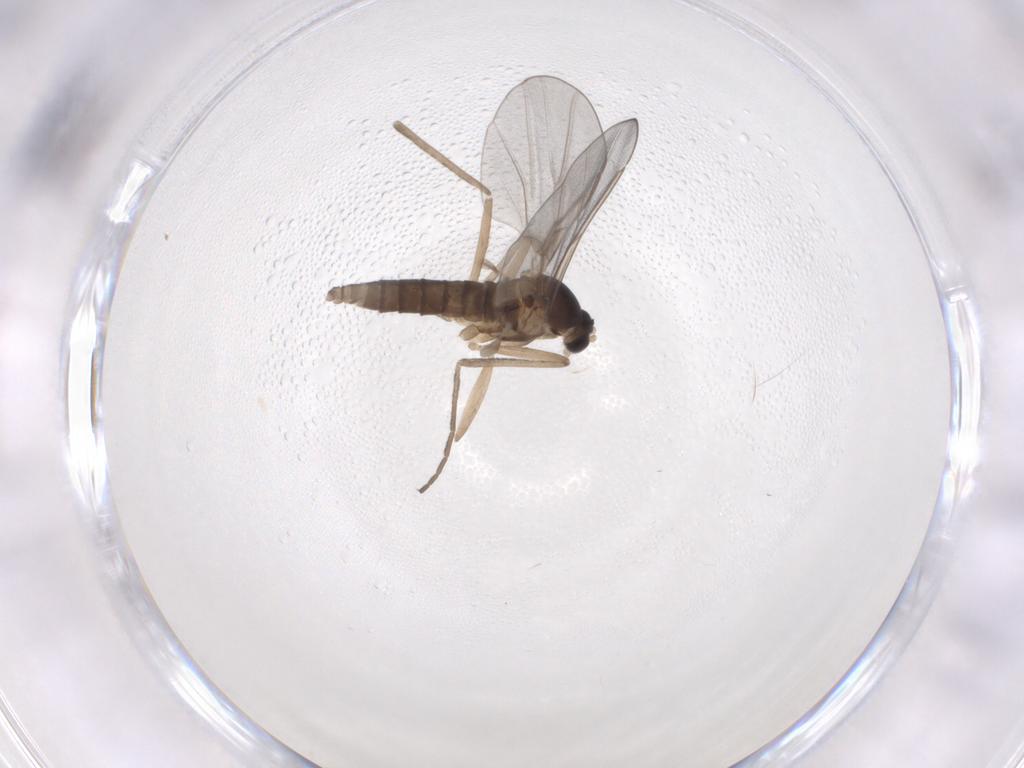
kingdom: Animalia
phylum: Arthropoda
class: Insecta
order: Diptera
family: Cecidomyiidae
